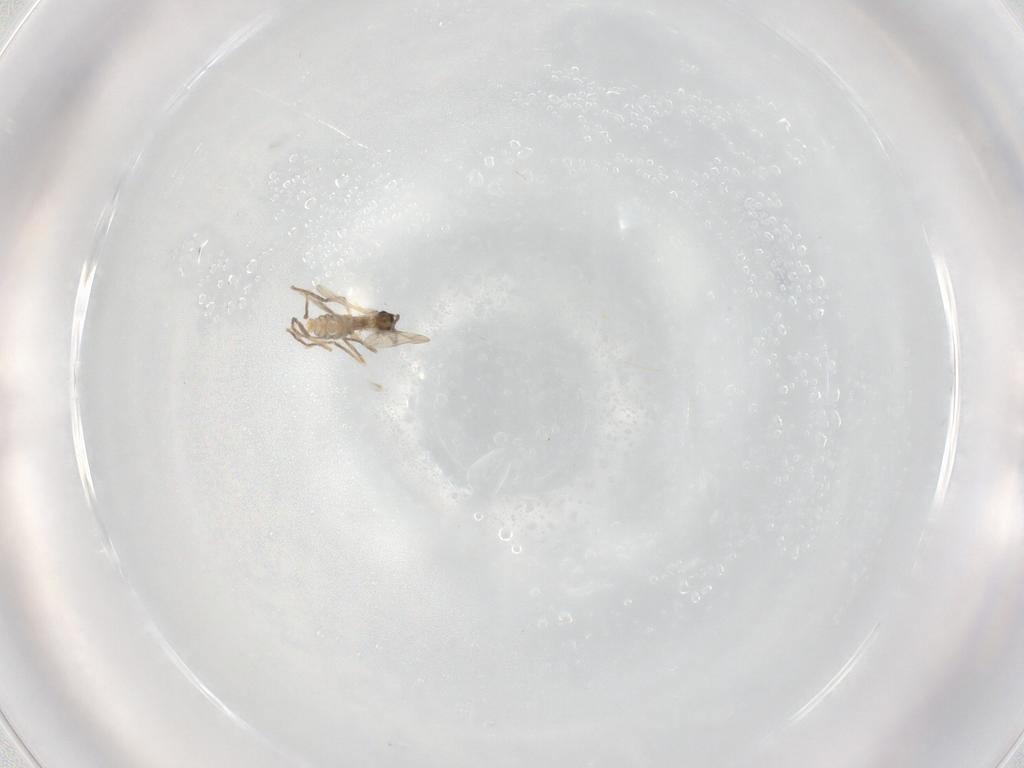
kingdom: Animalia
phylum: Arthropoda
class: Insecta
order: Diptera
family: Cecidomyiidae
